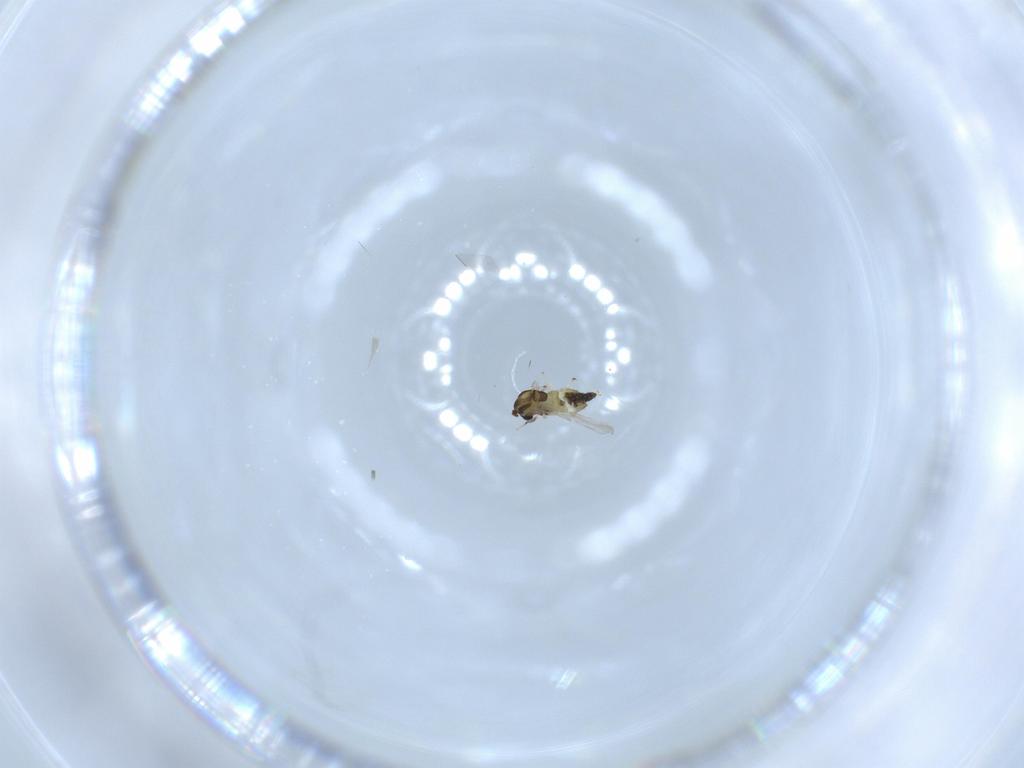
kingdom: Animalia
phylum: Arthropoda
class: Insecta
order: Diptera
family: Chironomidae
